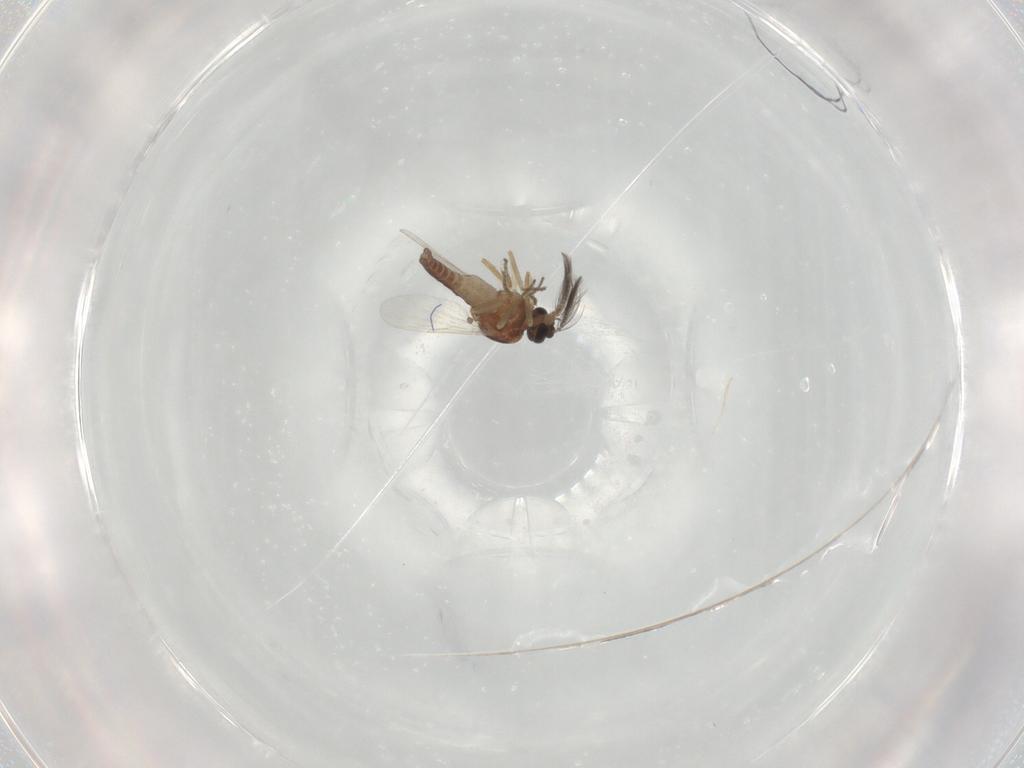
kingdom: Animalia
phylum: Arthropoda
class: Insecta
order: Diptera
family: Ceratopogonidae
